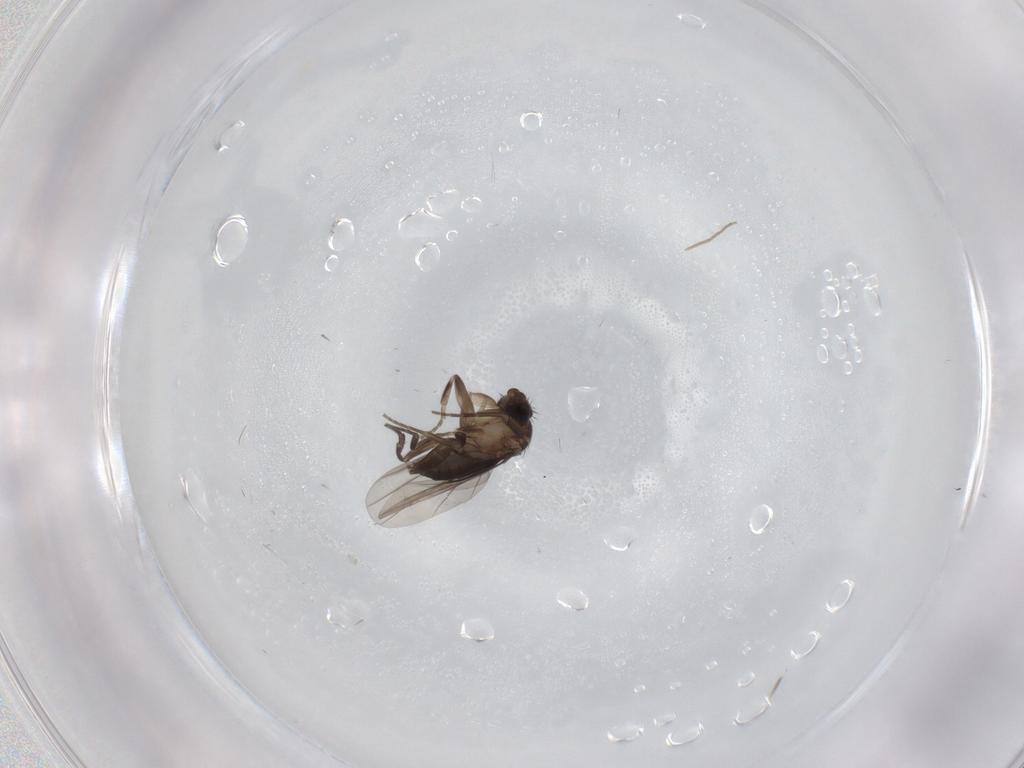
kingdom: Animalia
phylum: Arthropoda
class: Insecta
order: Diptera
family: Phoridae
